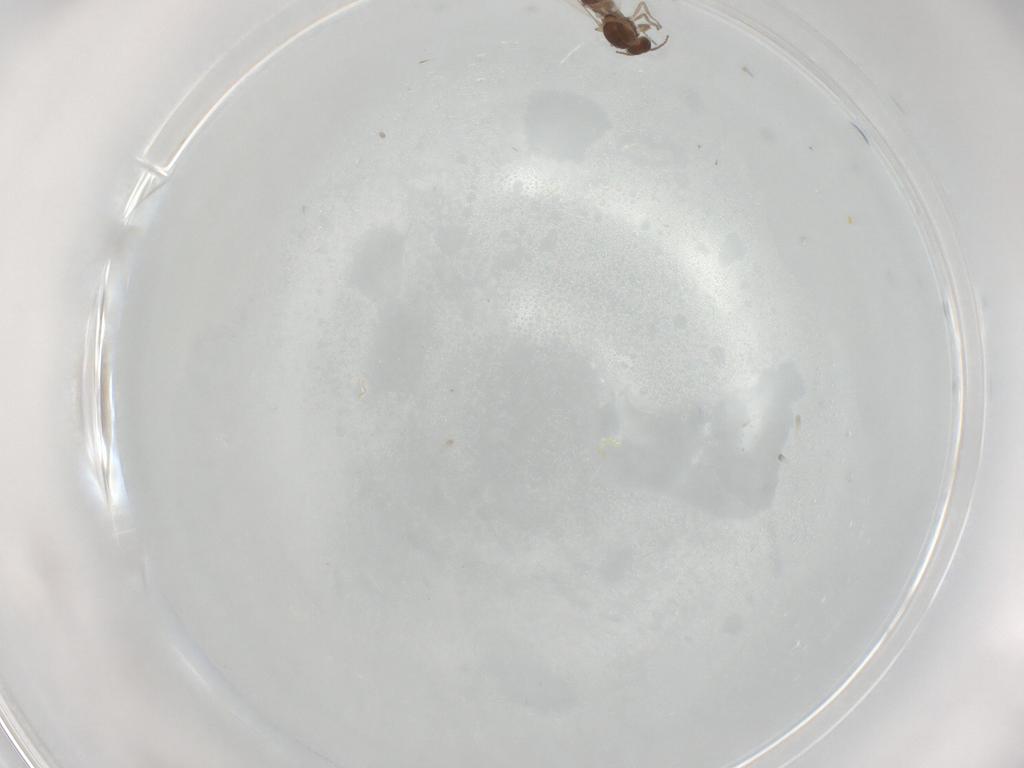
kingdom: Animalia
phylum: Arthropoda
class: Insecta
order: Diptera
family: Ceratopogonidae
